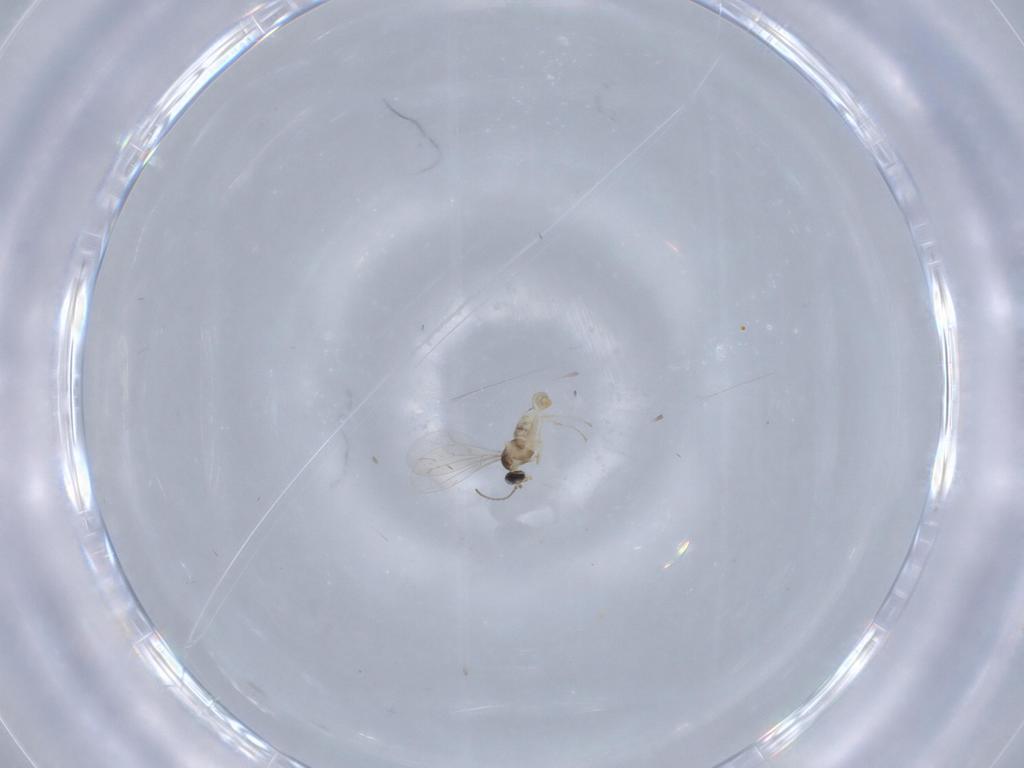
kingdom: Animalia
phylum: Arthropoda
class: Insecta
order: Diptera
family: Cecidomyiidae
